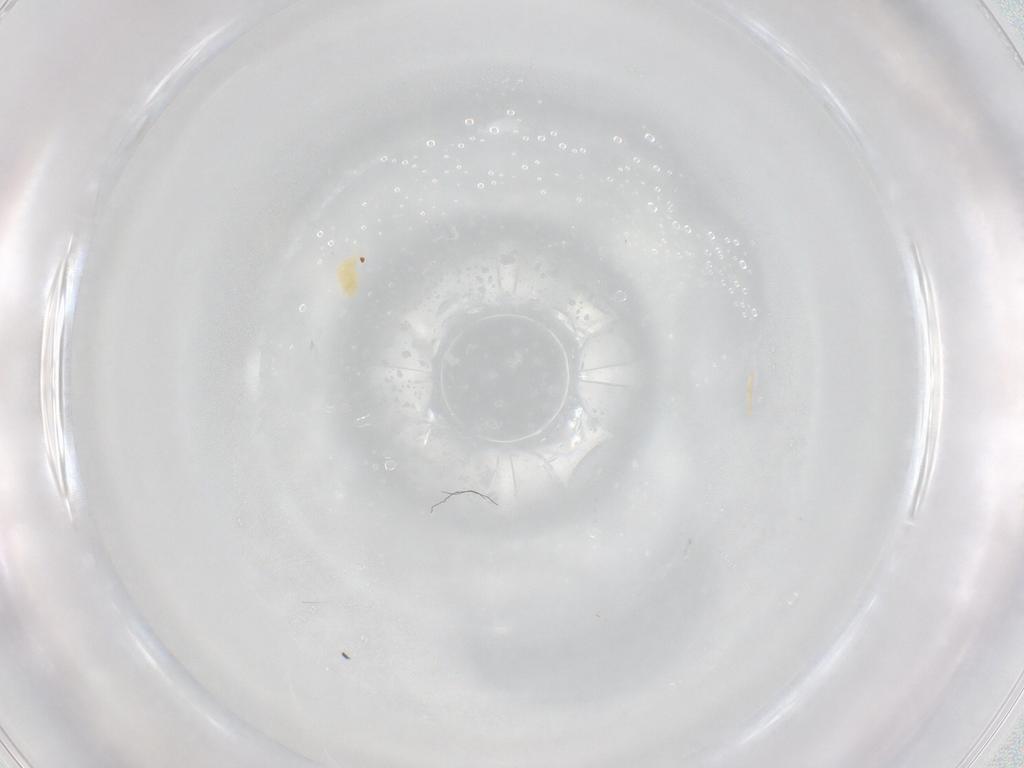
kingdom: Animalia
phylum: Arthropoda
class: Arachnida
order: Trombidiformes
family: Eupodidae
